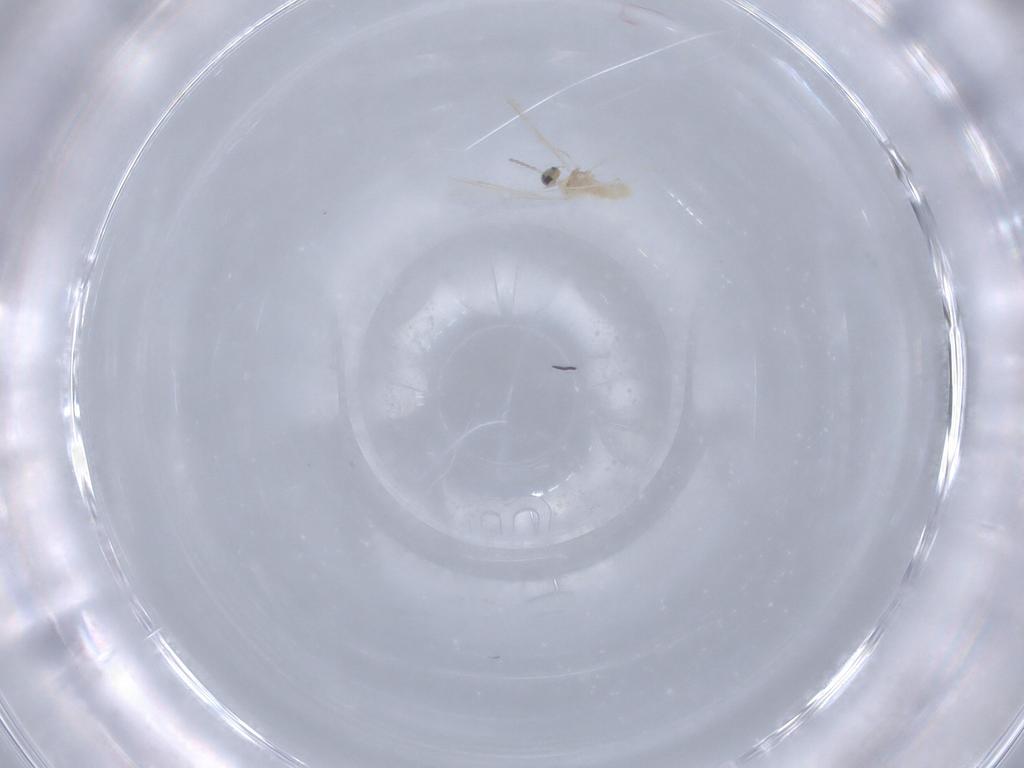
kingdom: Animalia
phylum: Arthropoda
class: Insecta
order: Diptera
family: Cecidomyiidae
